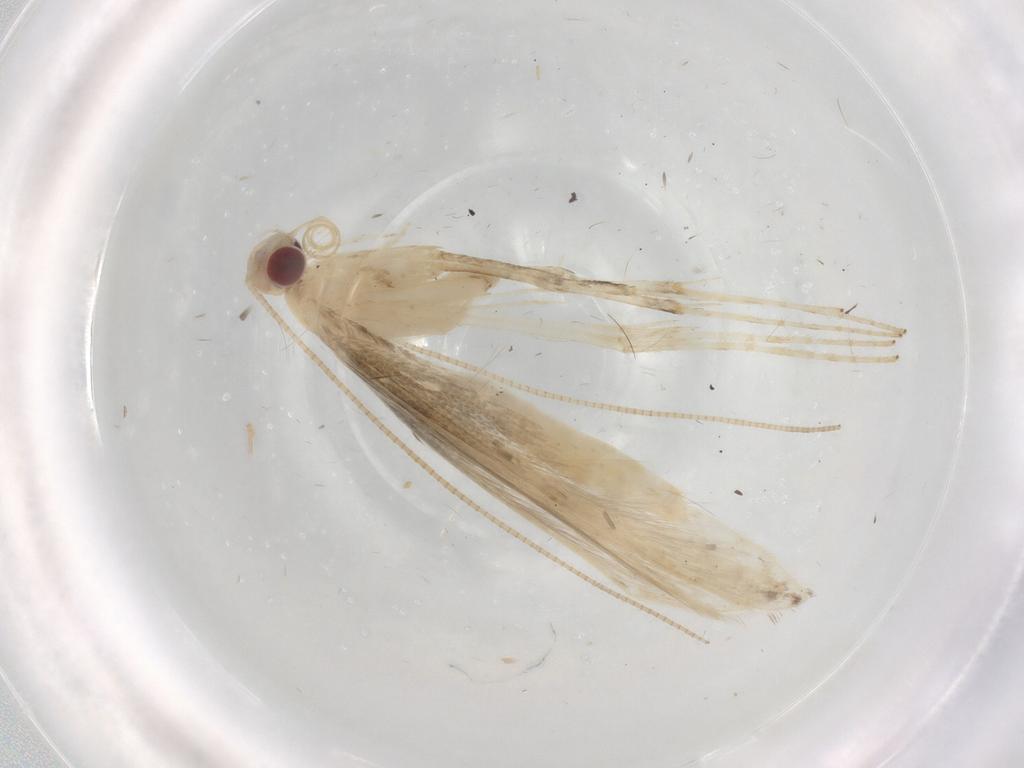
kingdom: Animalia
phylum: Arthropoda
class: Insecta
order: Lepidoptera
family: Gracillariidae
